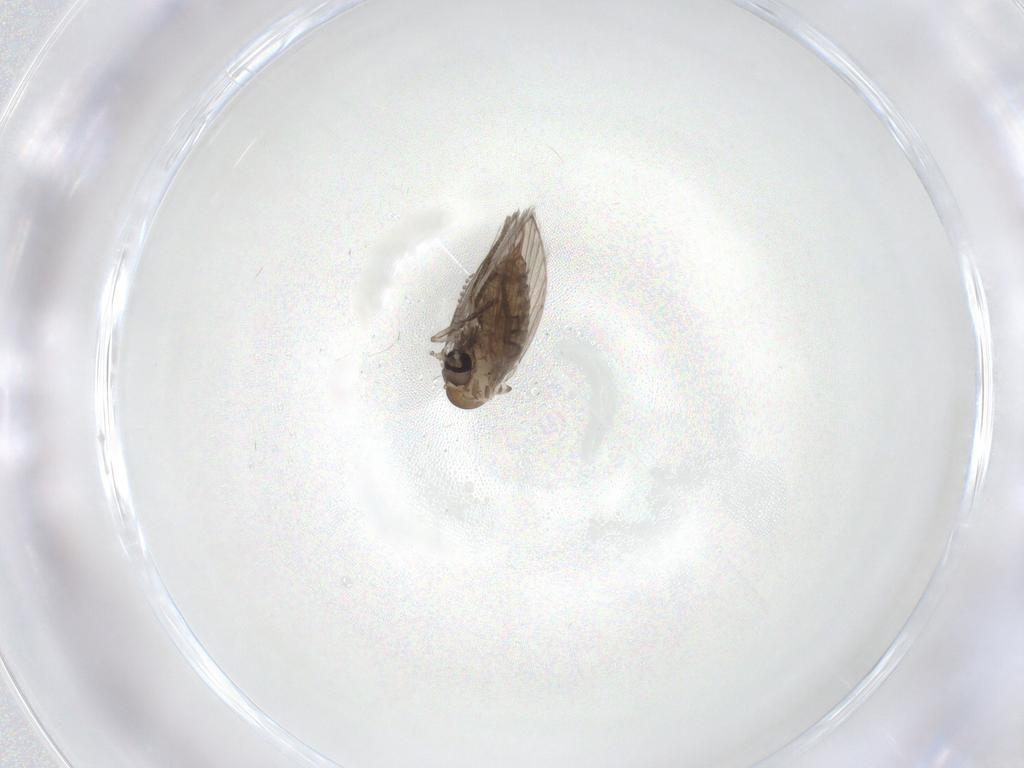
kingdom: Animalia
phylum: Arthropoda
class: Insecta
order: Diptera
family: Psychodidae
